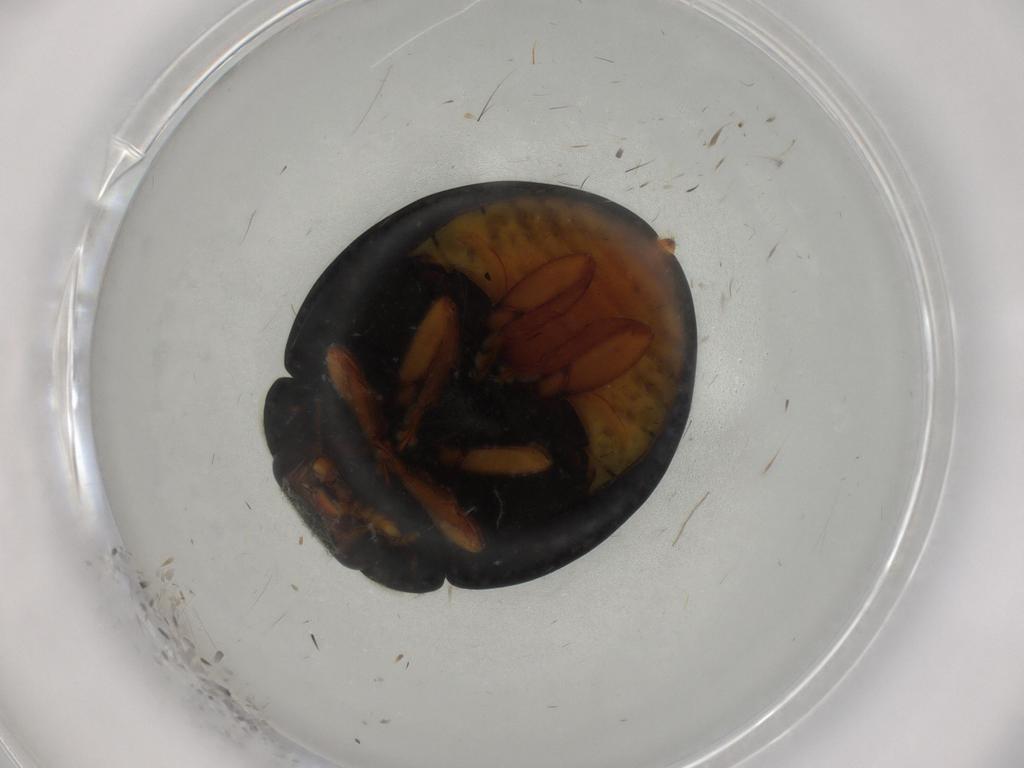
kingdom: Animalia
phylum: Arthropoda
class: Insecta
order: Coleoptera
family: Coccinellidae
